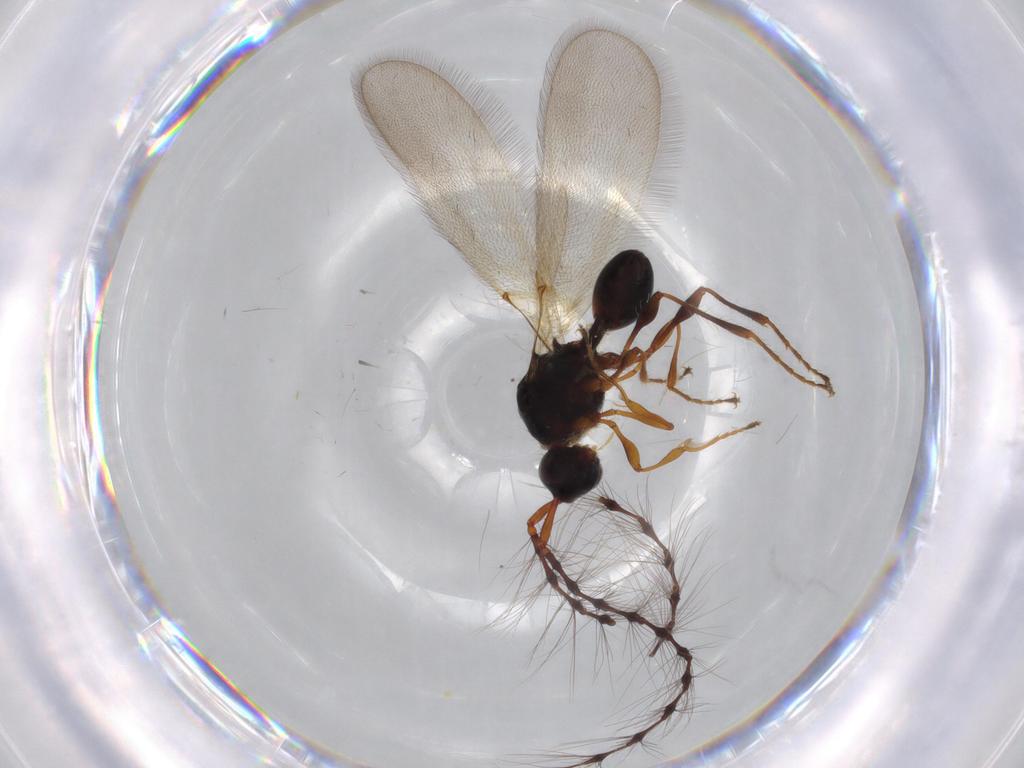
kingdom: Animalia
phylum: Arthropoda
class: Insecta
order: Hymenoptera
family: Diapriidae
